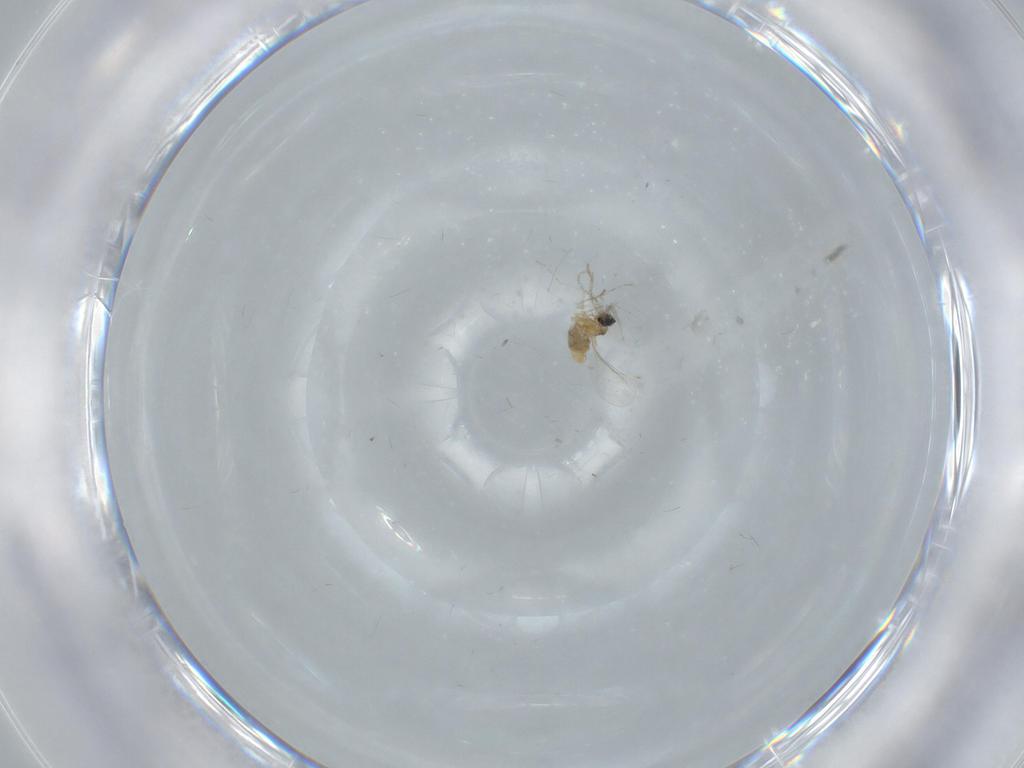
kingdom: Animalia
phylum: Arthropoda
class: Insecta
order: Diptera
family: Cecidomyiidae
